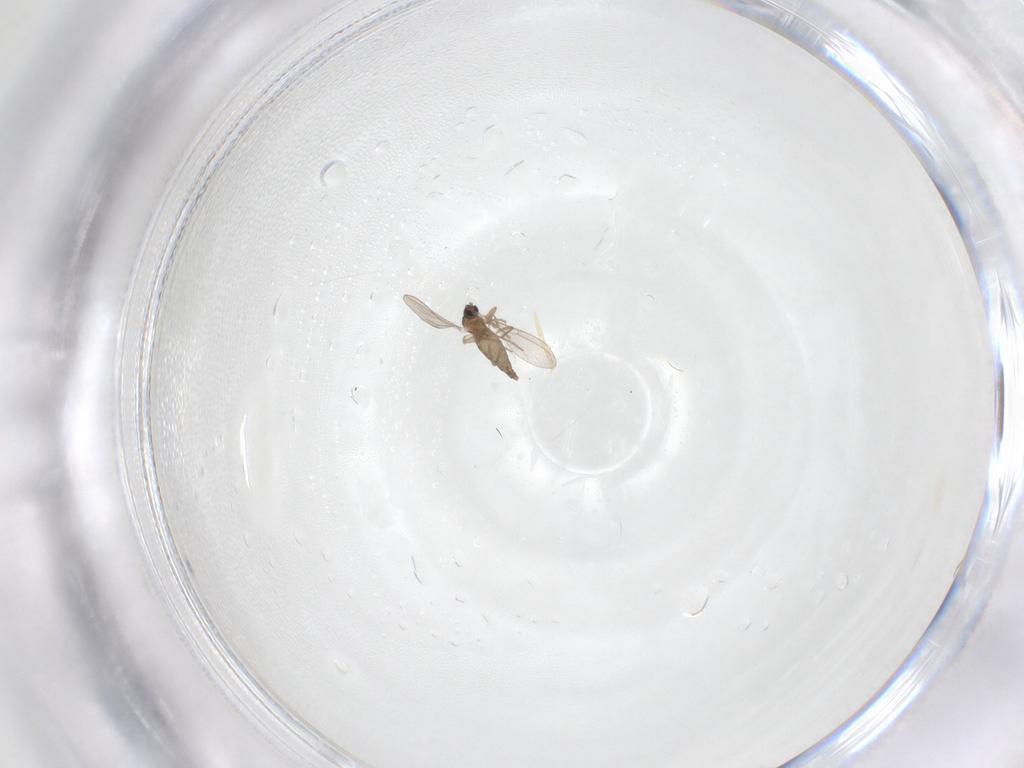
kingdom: Animalia
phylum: Arthropoda
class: Insecta
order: Diptera
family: Cecidomyiidae
